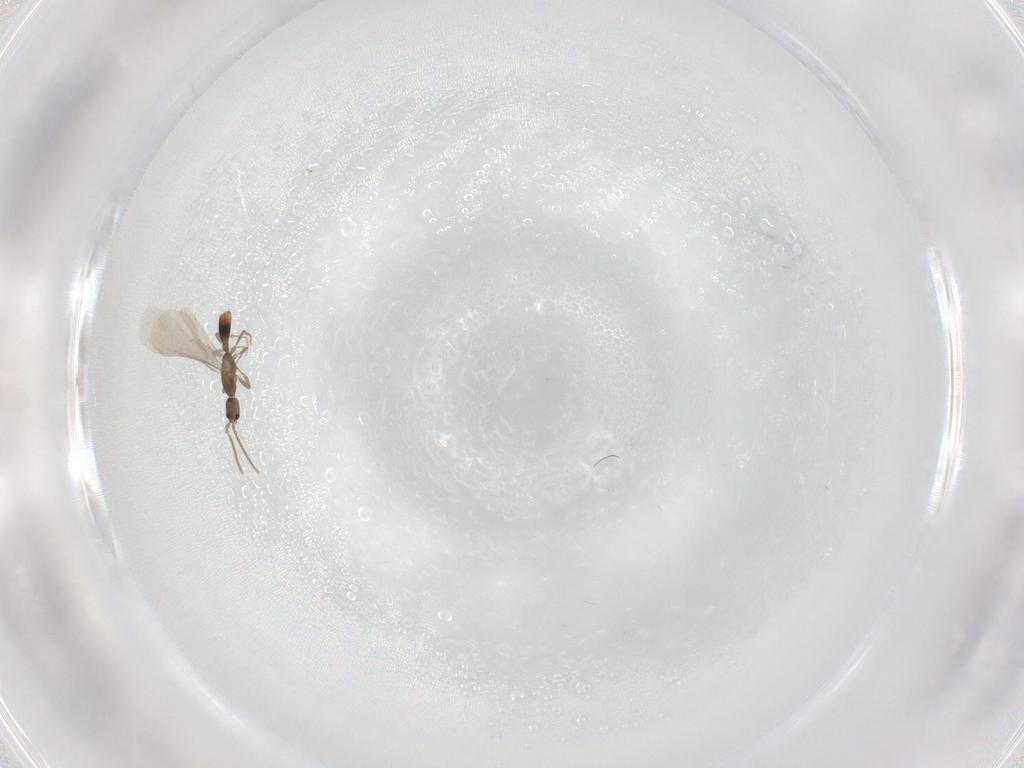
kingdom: Animalia
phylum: Arthropoda
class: Insecta
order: Hymenoptera
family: Formicidae
